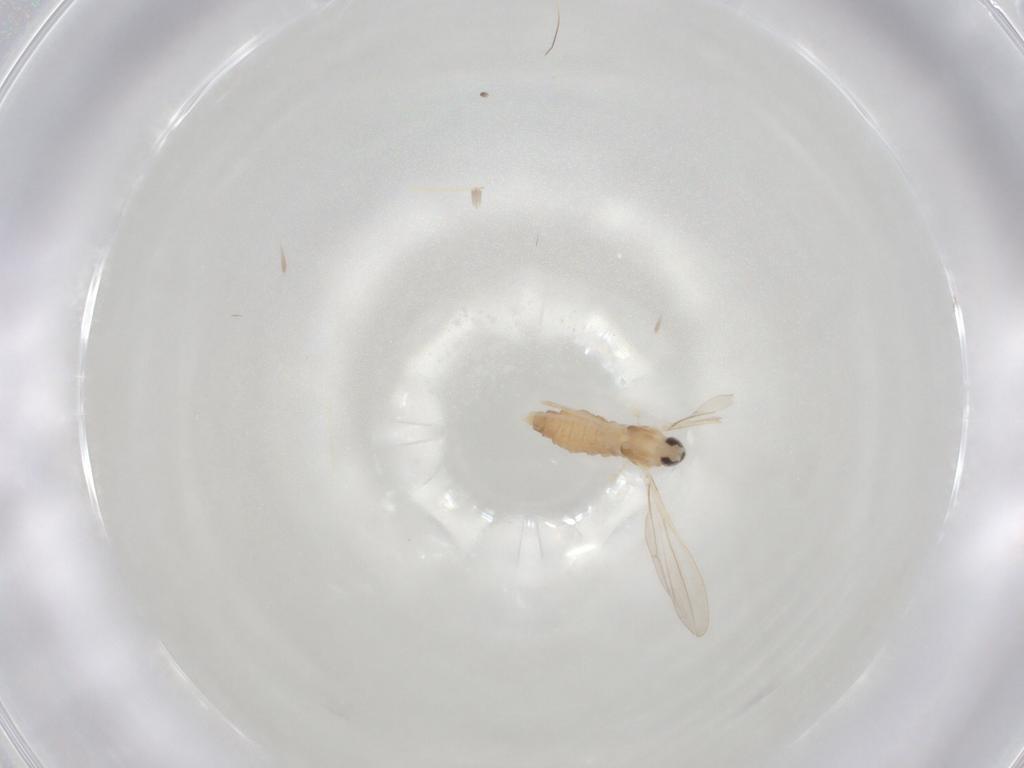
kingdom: Animalia
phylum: Arthropoda
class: Insecta
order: Diptera
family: Cecidomyiidae
